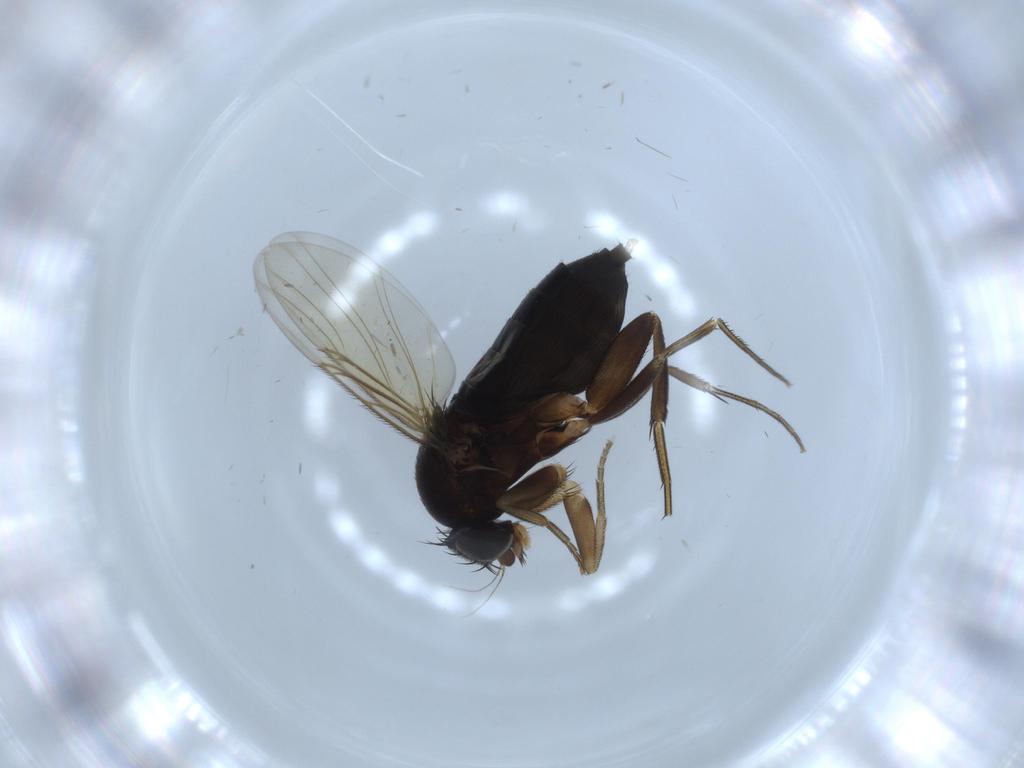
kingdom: Animalia
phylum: Arthropoda
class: Insecta
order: Diptera
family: Phoridae
